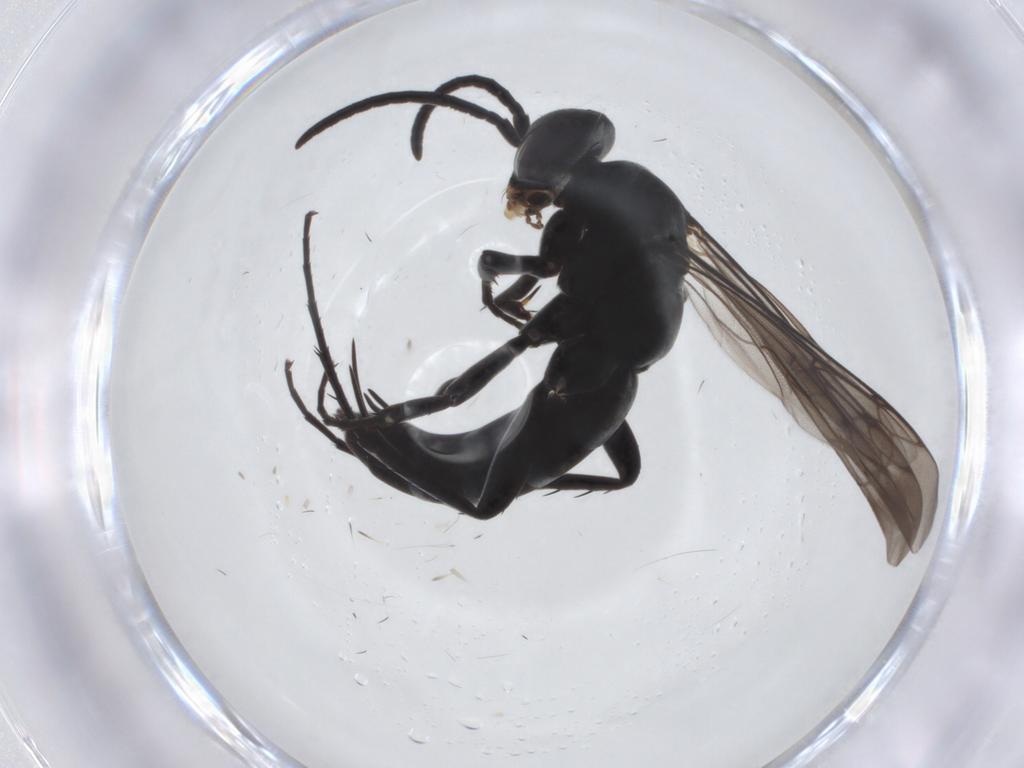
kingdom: Animalia
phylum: Arthropoda
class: Insecta
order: Hymenoptera
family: Pompilidae
